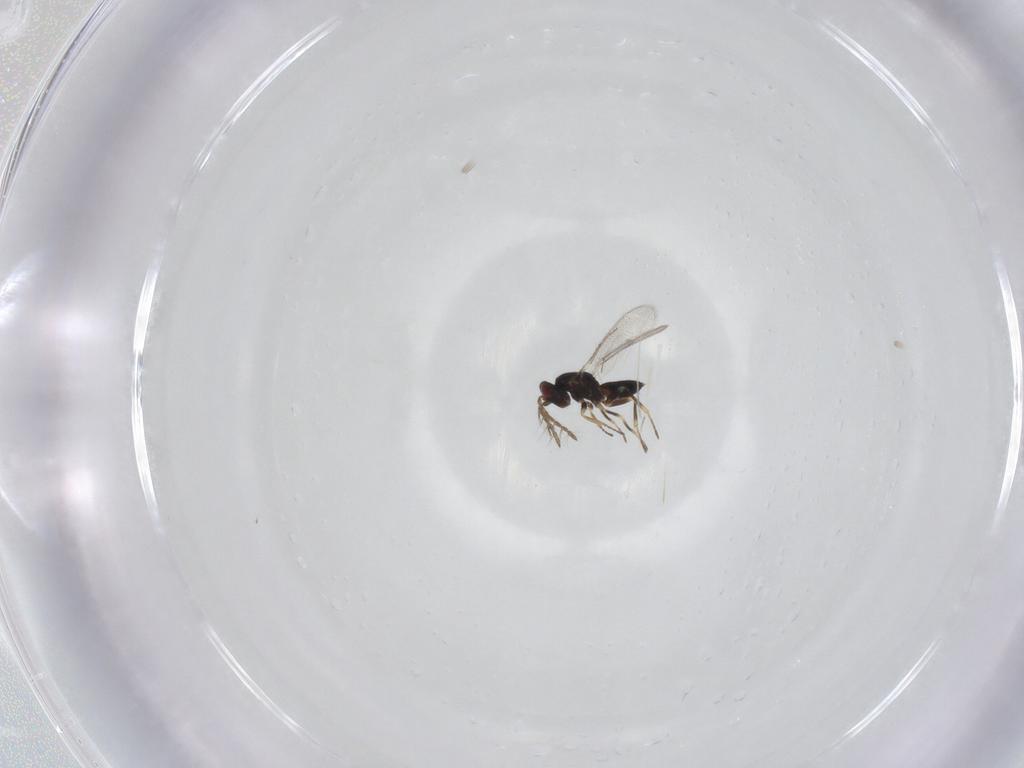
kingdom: Animalia
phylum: Arthropoda
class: Insecta
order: Hymenoptera
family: Eulophidae
